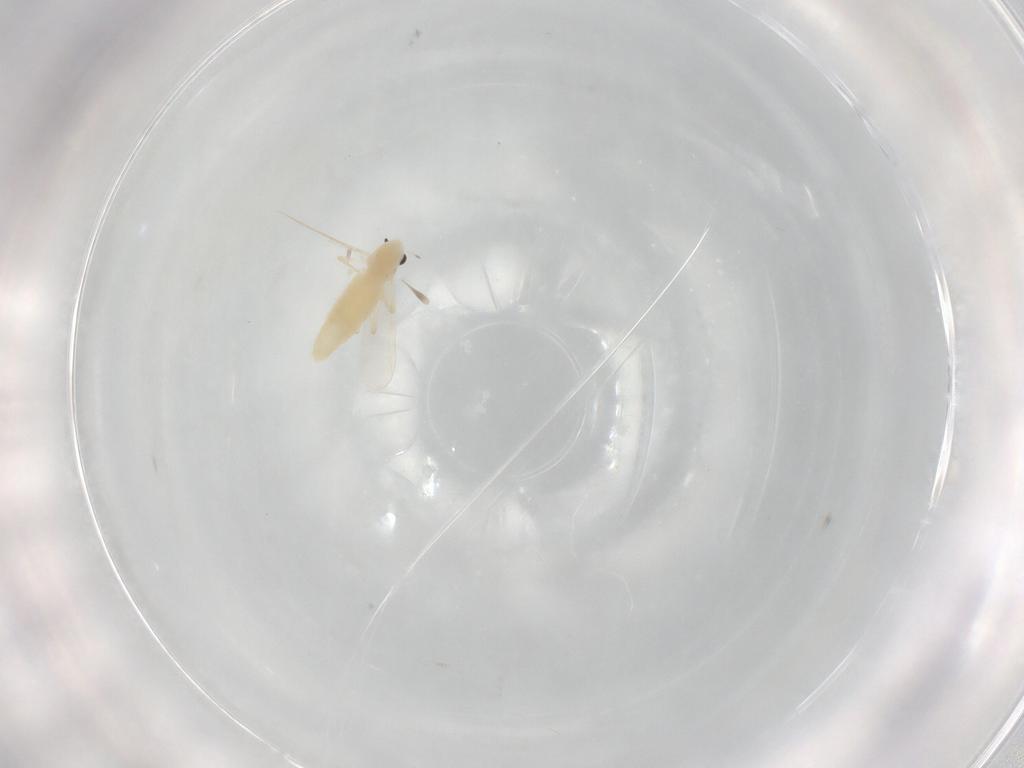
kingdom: Animalia
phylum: Arthropoda
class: Insecta
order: Diptera
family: Chironomidae
